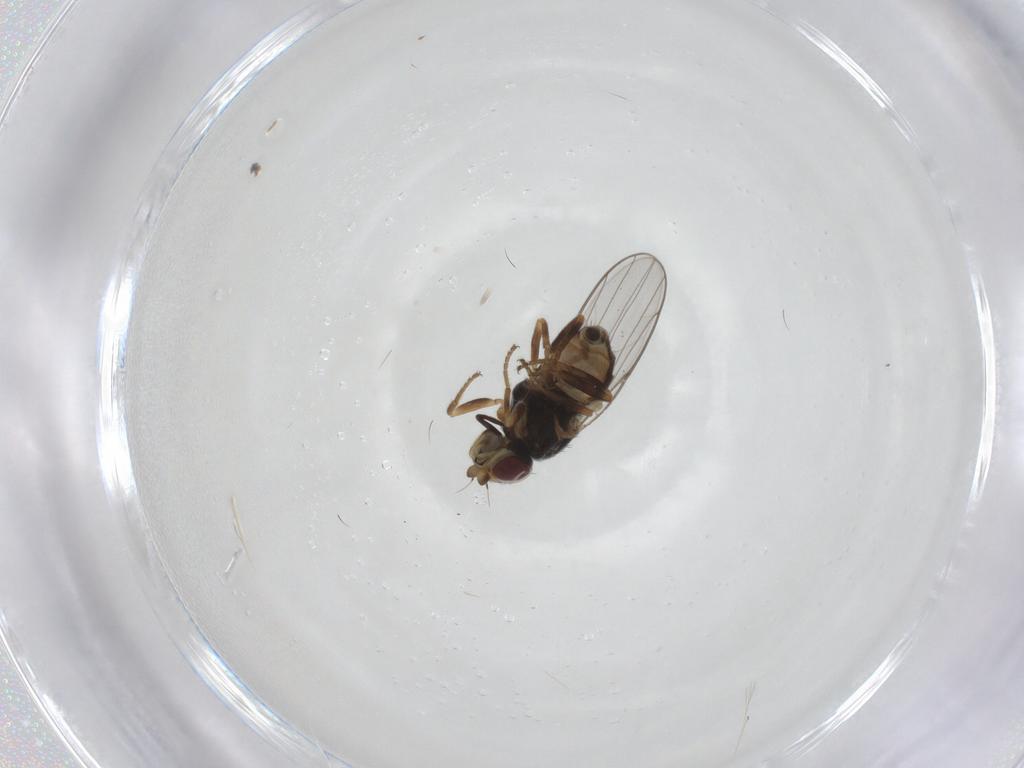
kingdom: Animalia
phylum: Arthropoda
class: Insecta
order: Diptera
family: Chloropidae
